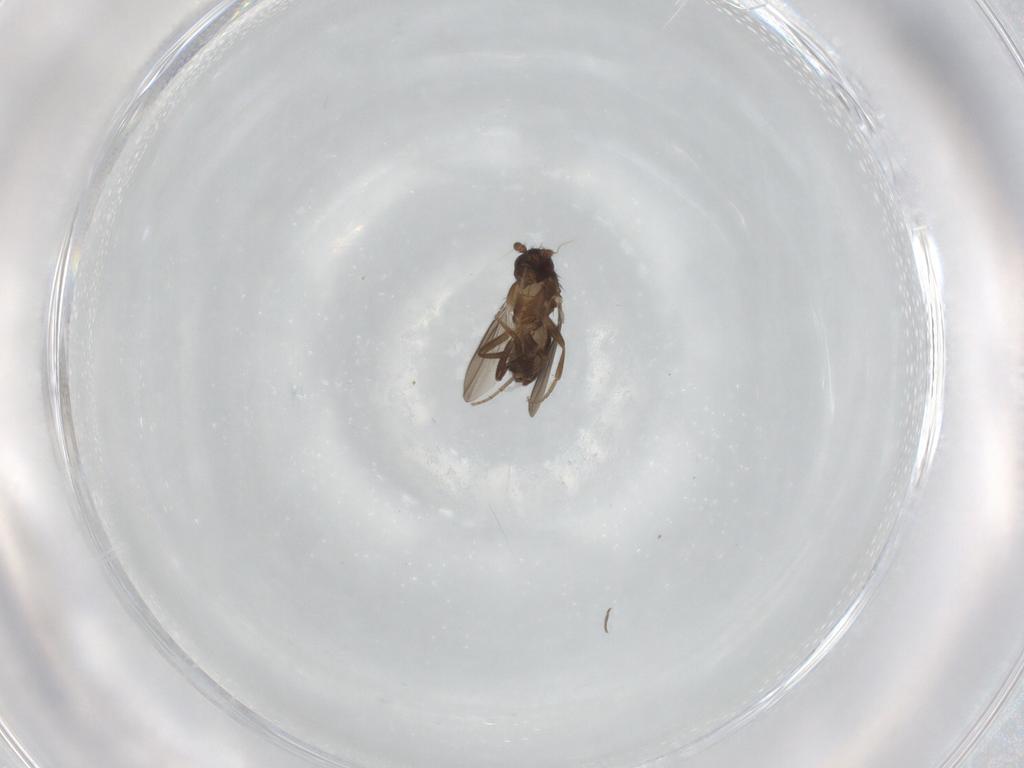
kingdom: Animalia
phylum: Arthropoda
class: Insecta
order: Diptera
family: Sphaeroceridae
